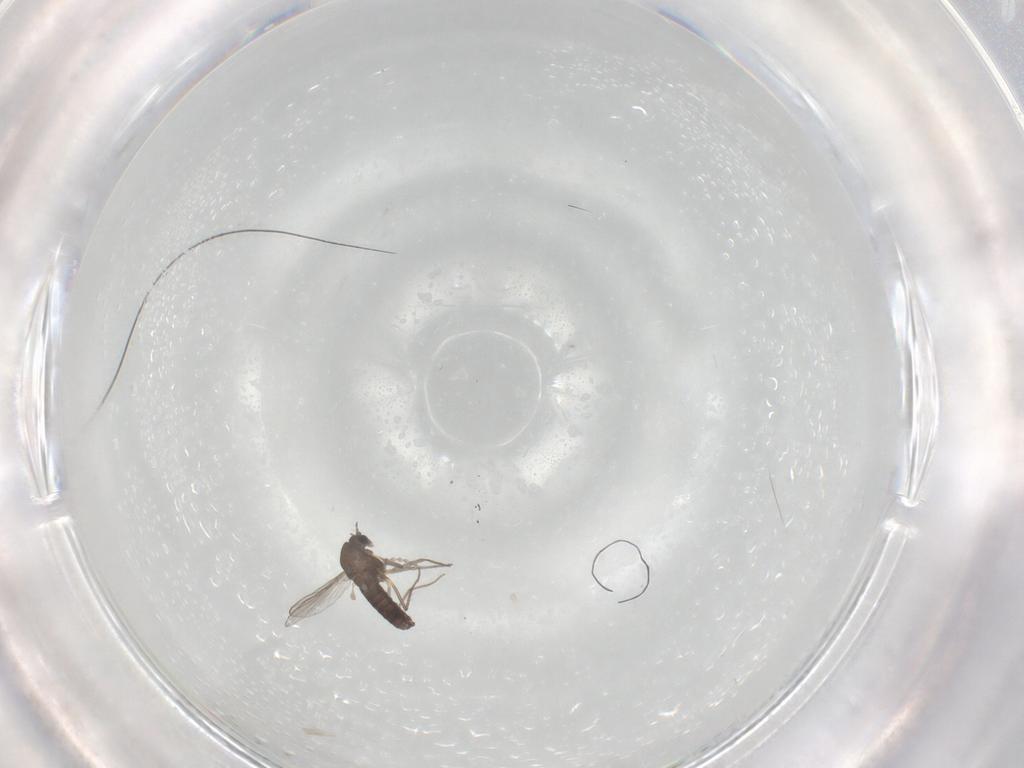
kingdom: Animalia
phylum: Arthropoda
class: Insecta
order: Diptera
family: Chironomidae
